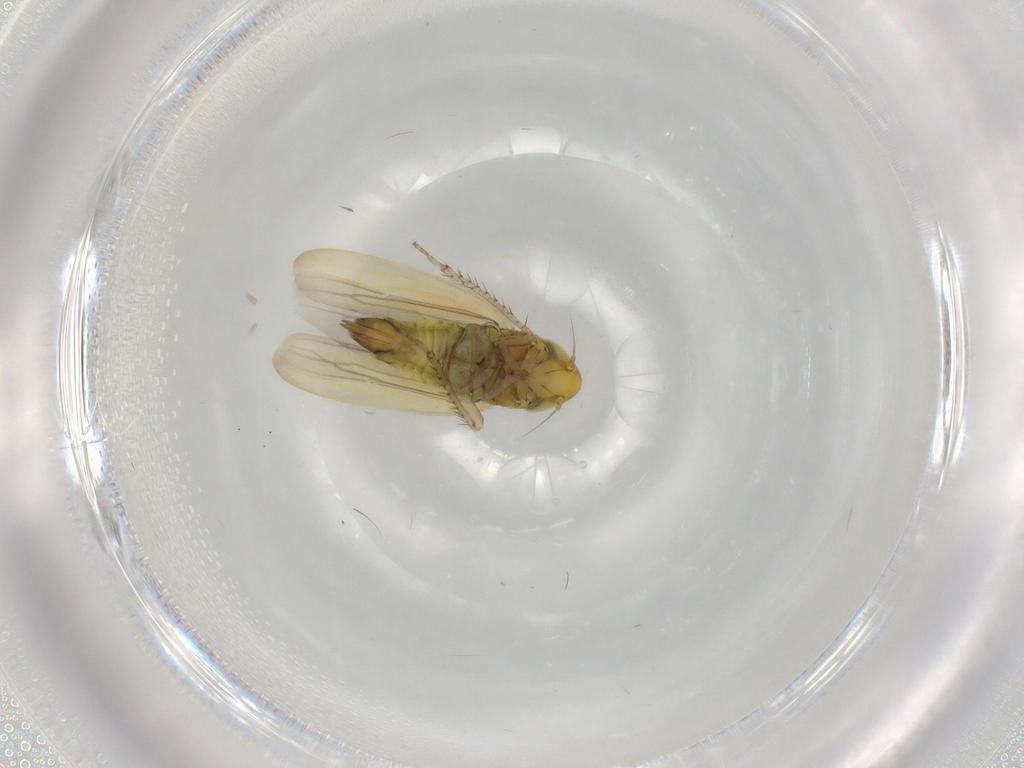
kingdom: Animalia
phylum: Arthropoda
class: Insecta
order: Hemiptera
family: Cicadellidae
